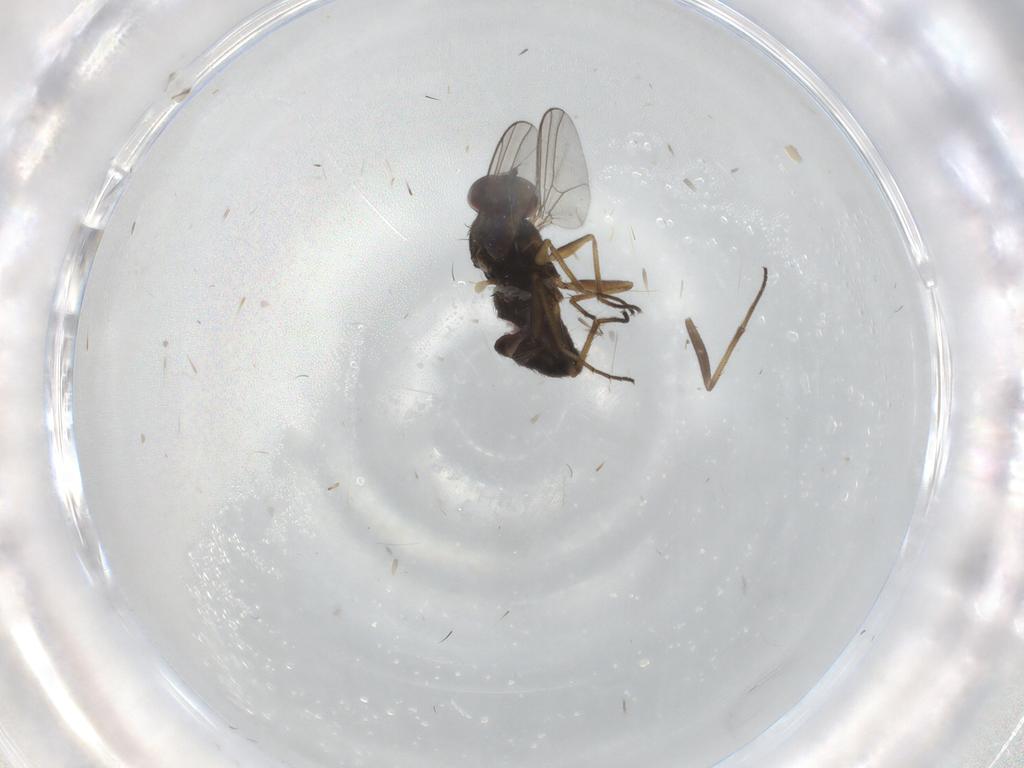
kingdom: Animalia
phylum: Arthropoda
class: Insecta
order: Diptera
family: Dolichopodidae
